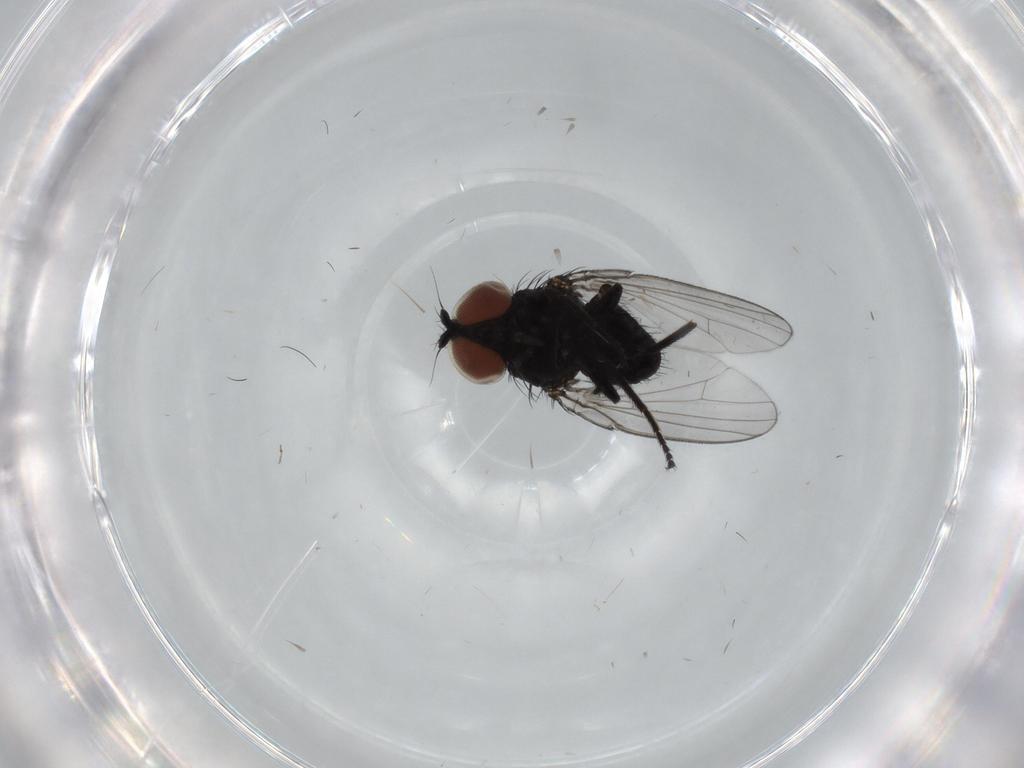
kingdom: Animalia
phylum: Arthropoda
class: Insecta
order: Diptera
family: Milichiidae
